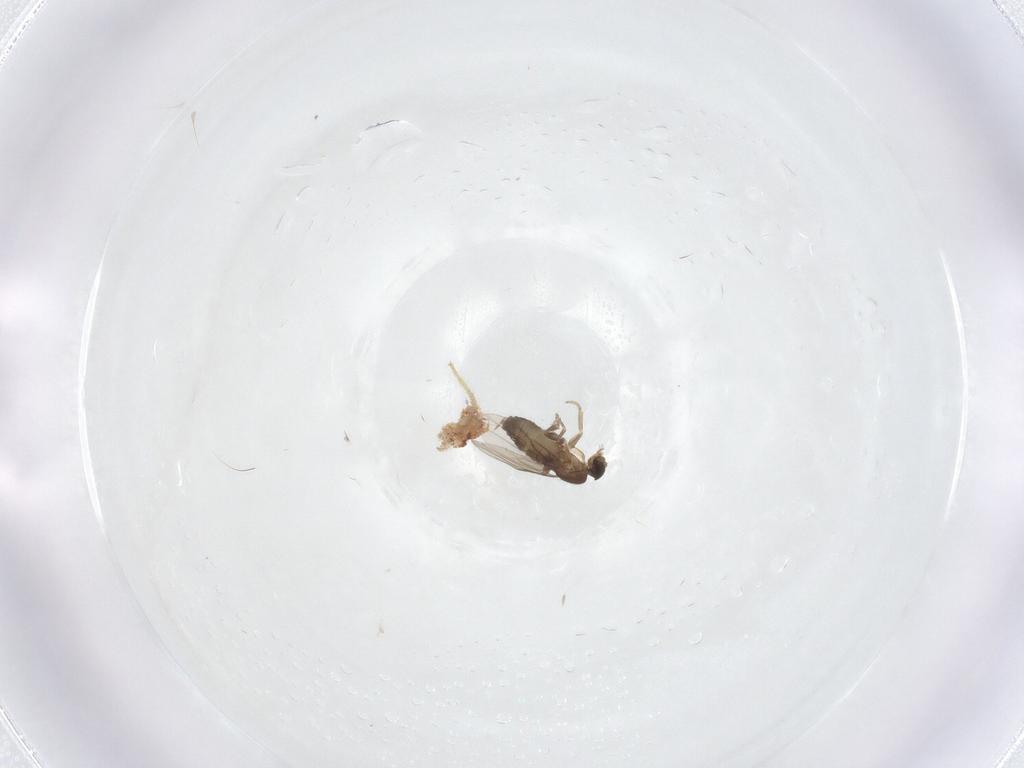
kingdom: Animalia
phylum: Arthropoda
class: Insecta
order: Diptera
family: Phoridae
